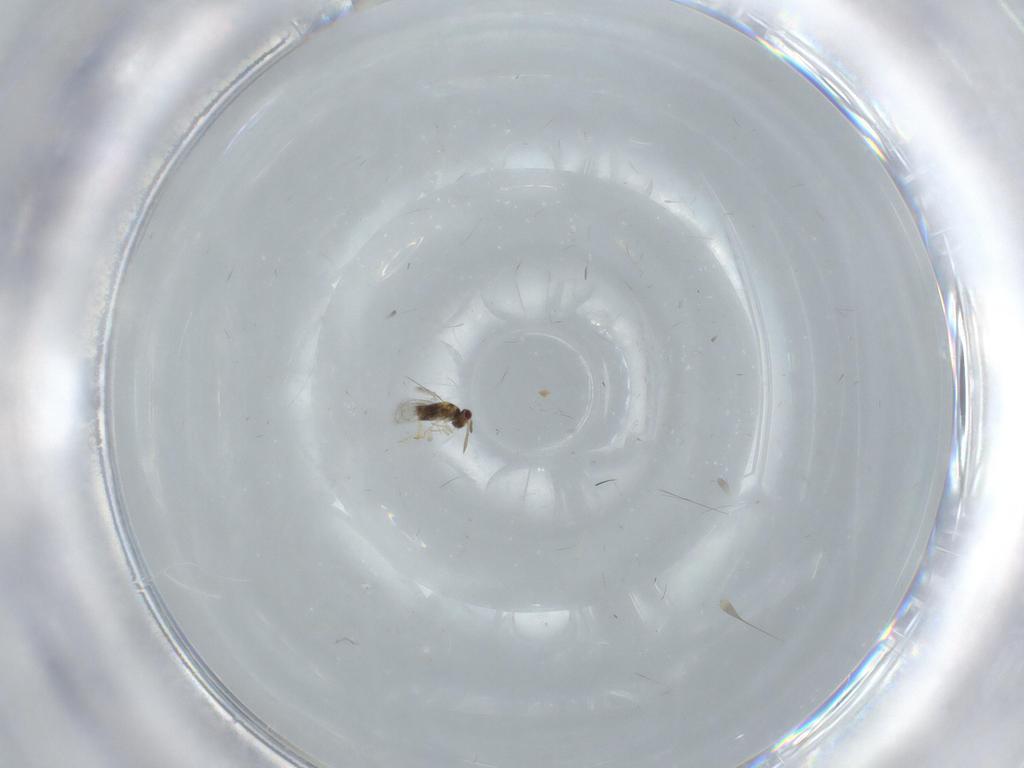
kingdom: Animalia
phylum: Arthropoda
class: Insecta
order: Hymenoptera
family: Aphelinidae
